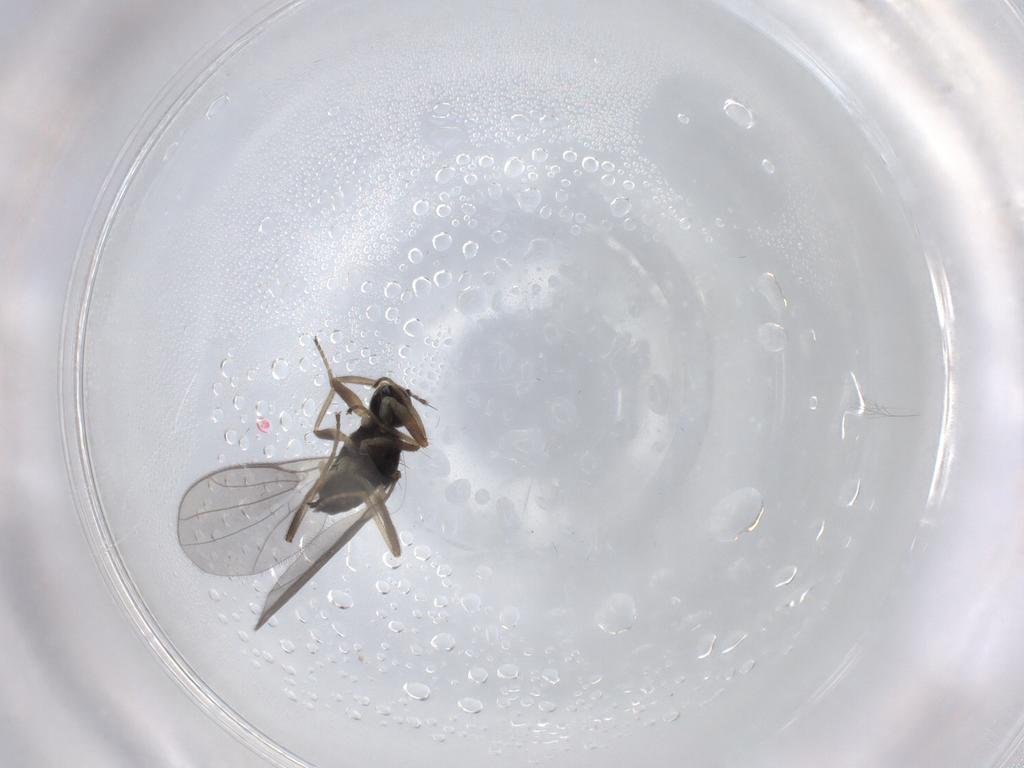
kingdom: Animalia
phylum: Arthropoda
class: Insecta
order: Diptera
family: Hybotidae
